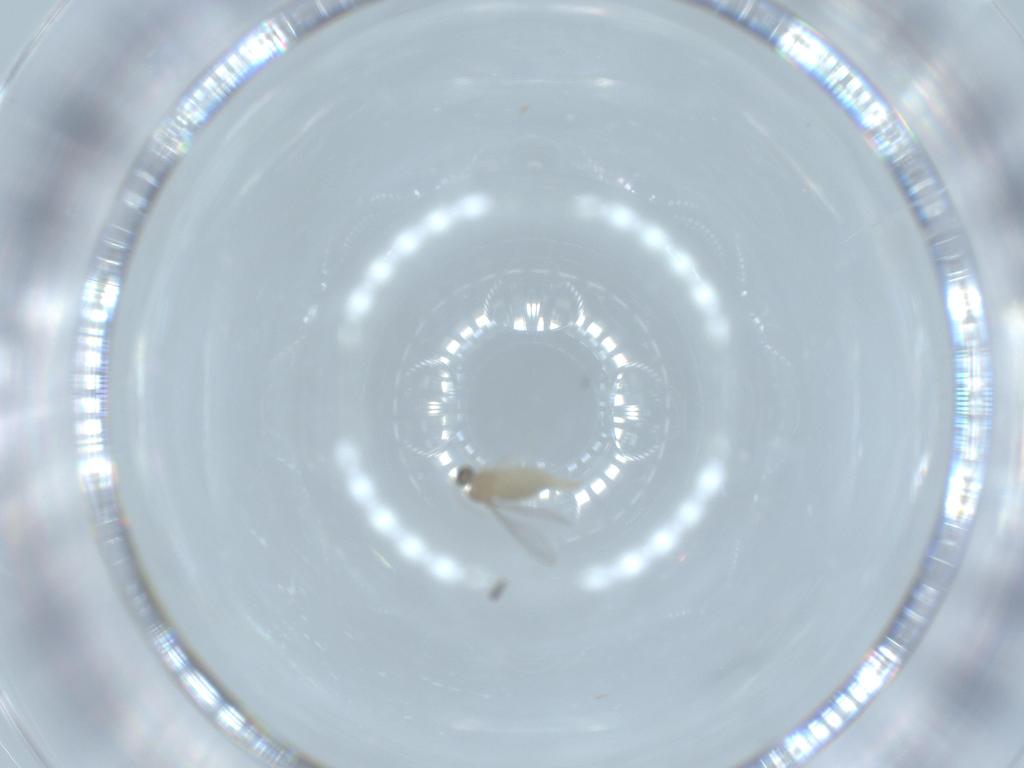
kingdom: Animalia
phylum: Arthropoda
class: Insecta
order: Diptera
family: Cecidomyiidae
